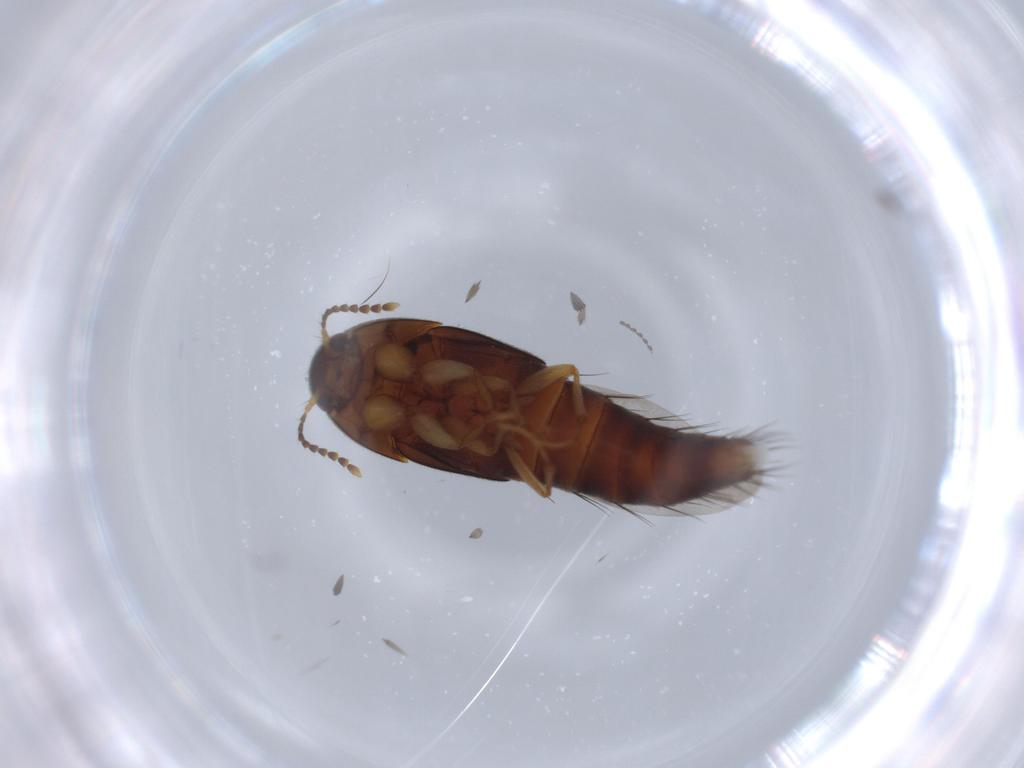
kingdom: Animalia
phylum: Arthropoda
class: Insecta
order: Coleoptera
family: Staphylinidae
